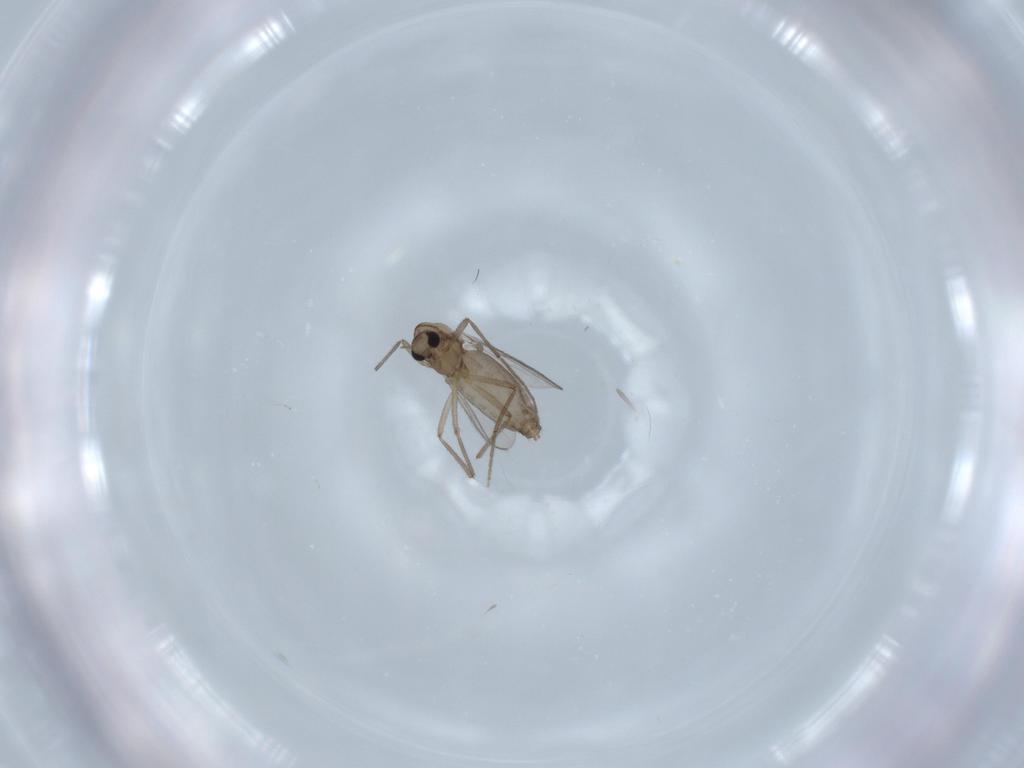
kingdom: Animalia
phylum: Arthropoda
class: Insecta
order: Diptera
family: Chironomidae
